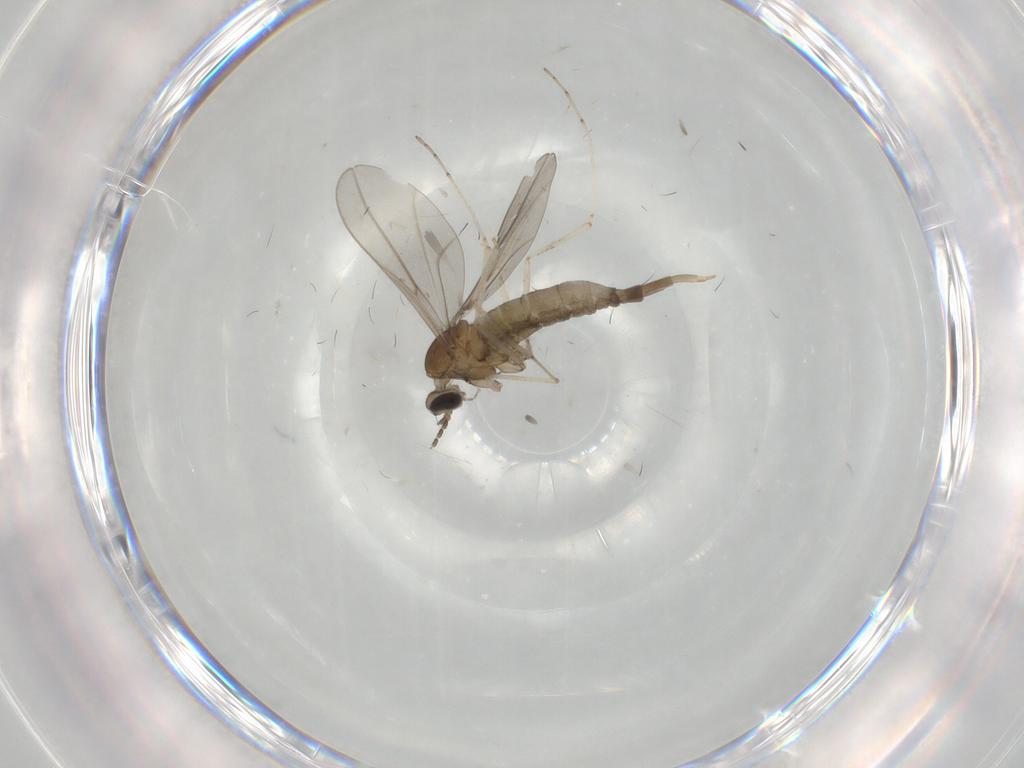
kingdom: Animalia
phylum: Arthropoda
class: Insecta
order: Diptera
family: Cecidomyiidae
